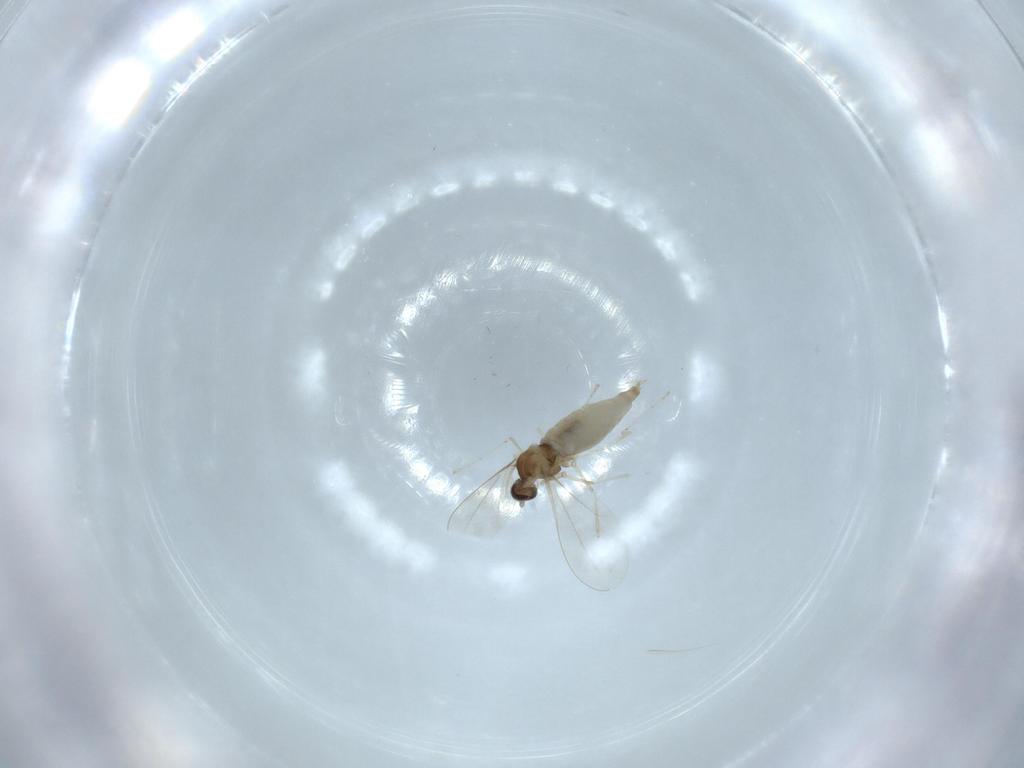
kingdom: Animalia
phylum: Arthropoda
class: Insecta
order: Diptera
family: Cecidomyiidae
